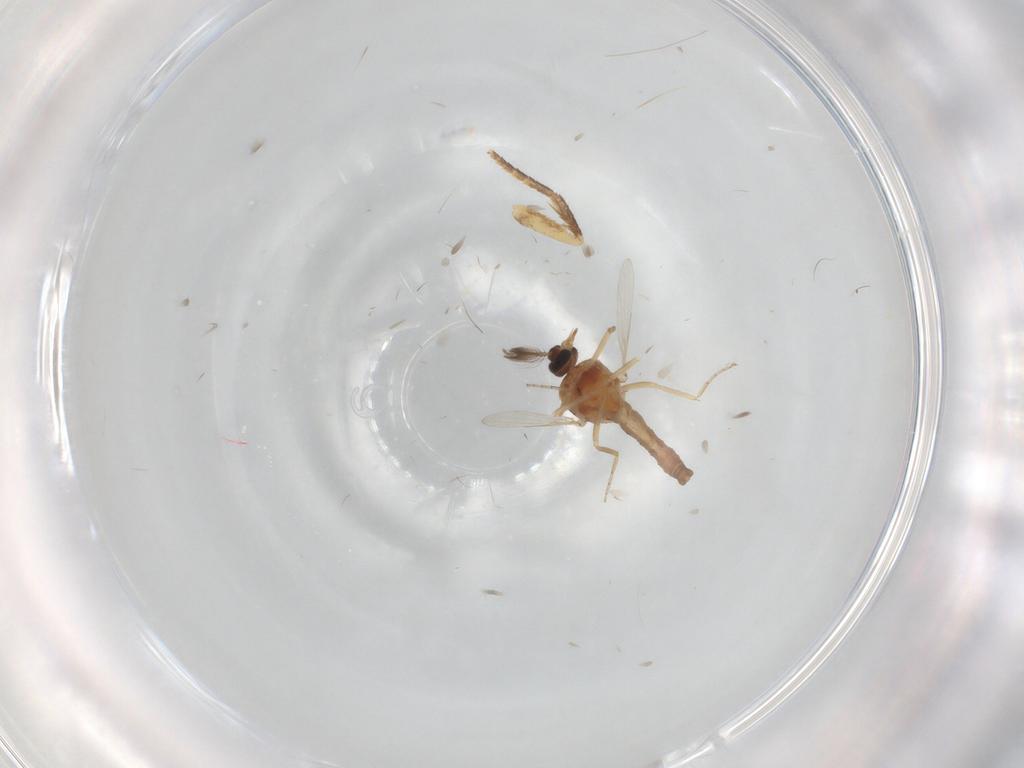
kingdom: Animalia
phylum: Arthropoda
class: Insecta
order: Diptera
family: Ceratopogonidae
